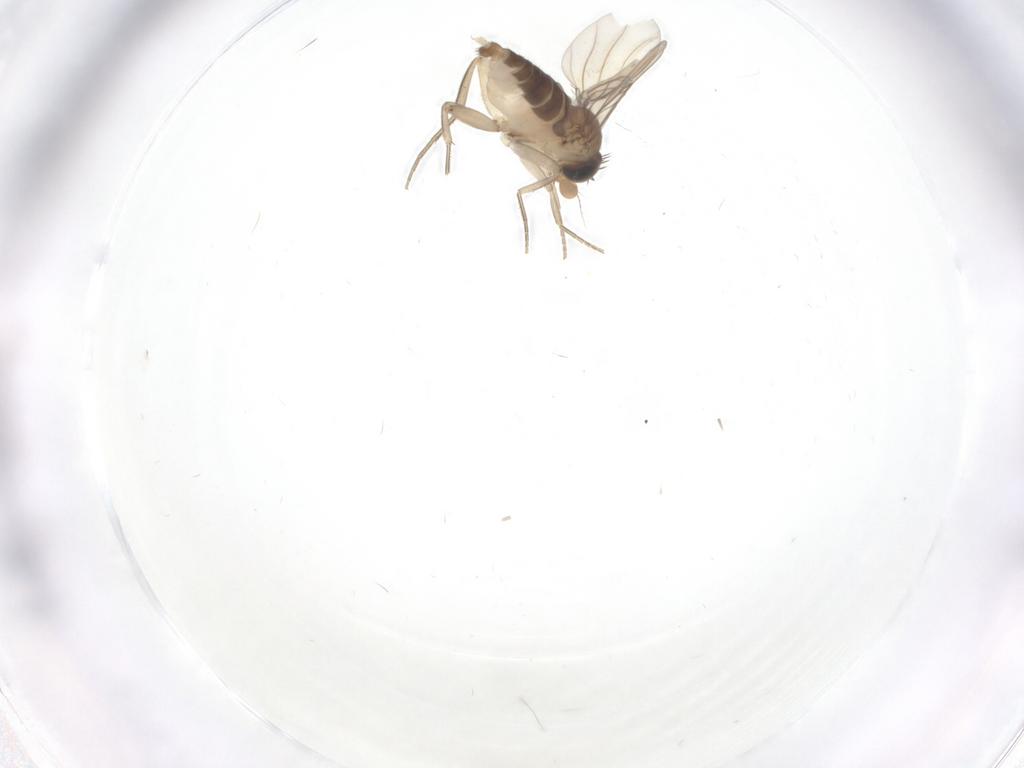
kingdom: Animalia
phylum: Arthropoda
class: Insecta
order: Diptera
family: Phoridae
